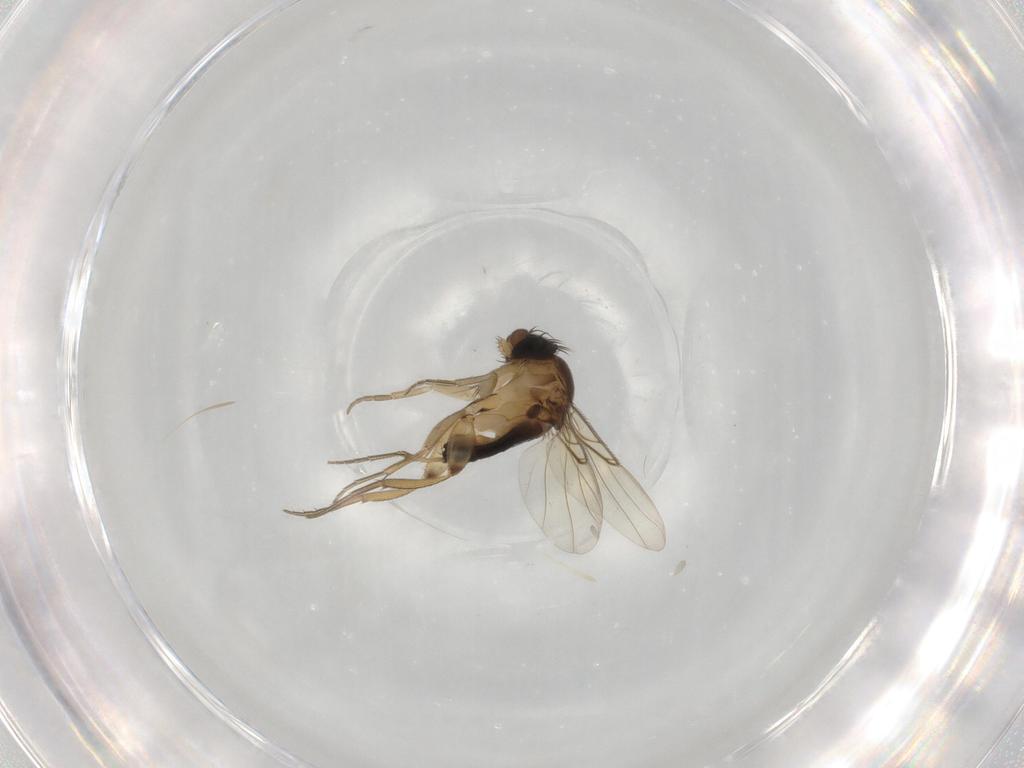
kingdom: Animalia
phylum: Arthropoda
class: Insecta
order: Diptera
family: Phoridae
